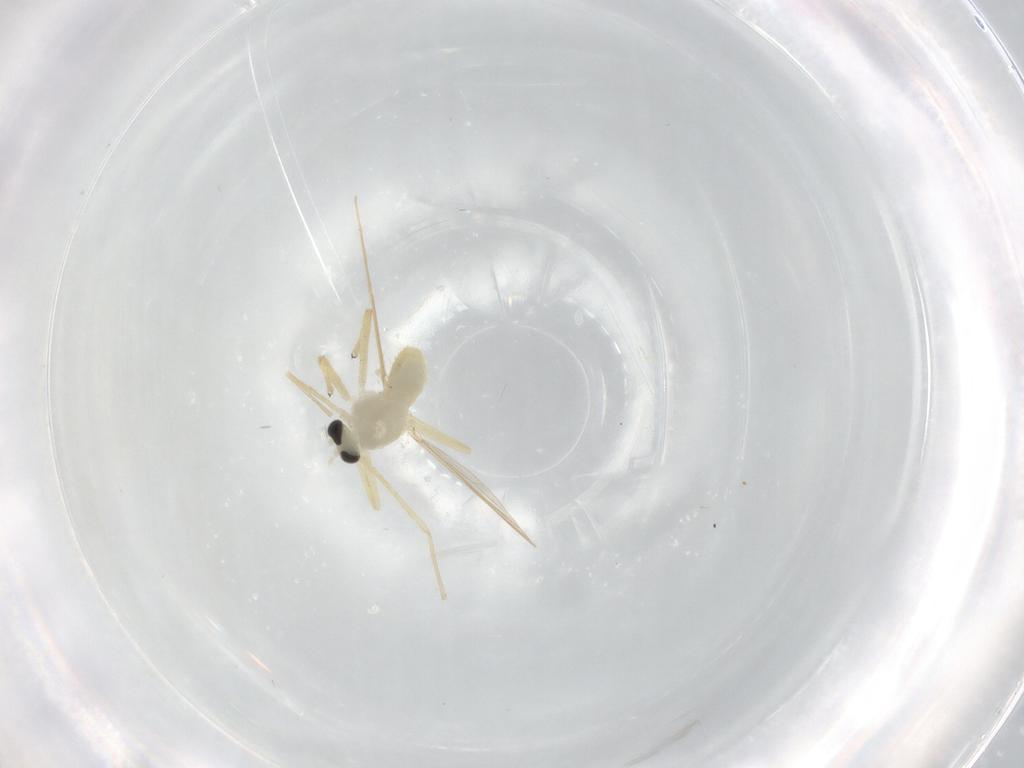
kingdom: Animalia
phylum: Arthropoda
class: Insecta
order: Diptera
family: Chironomidae
